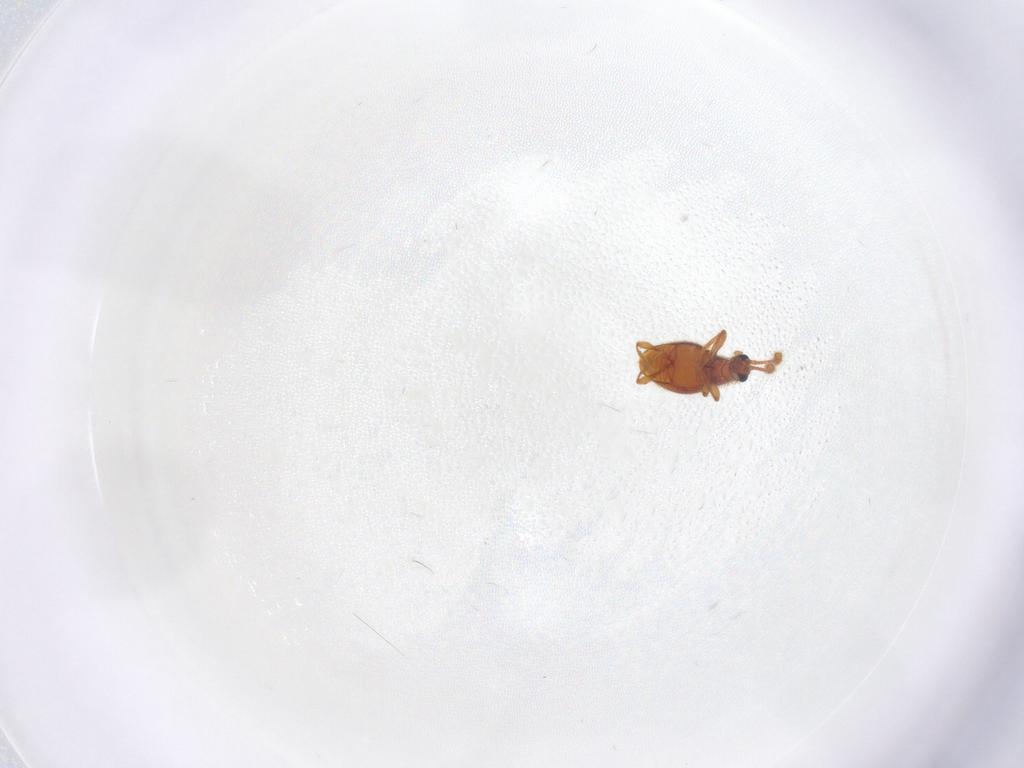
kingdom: Animalia
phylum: Arthropoda
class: Insecta
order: Coleoptera
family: Staphylinidae
